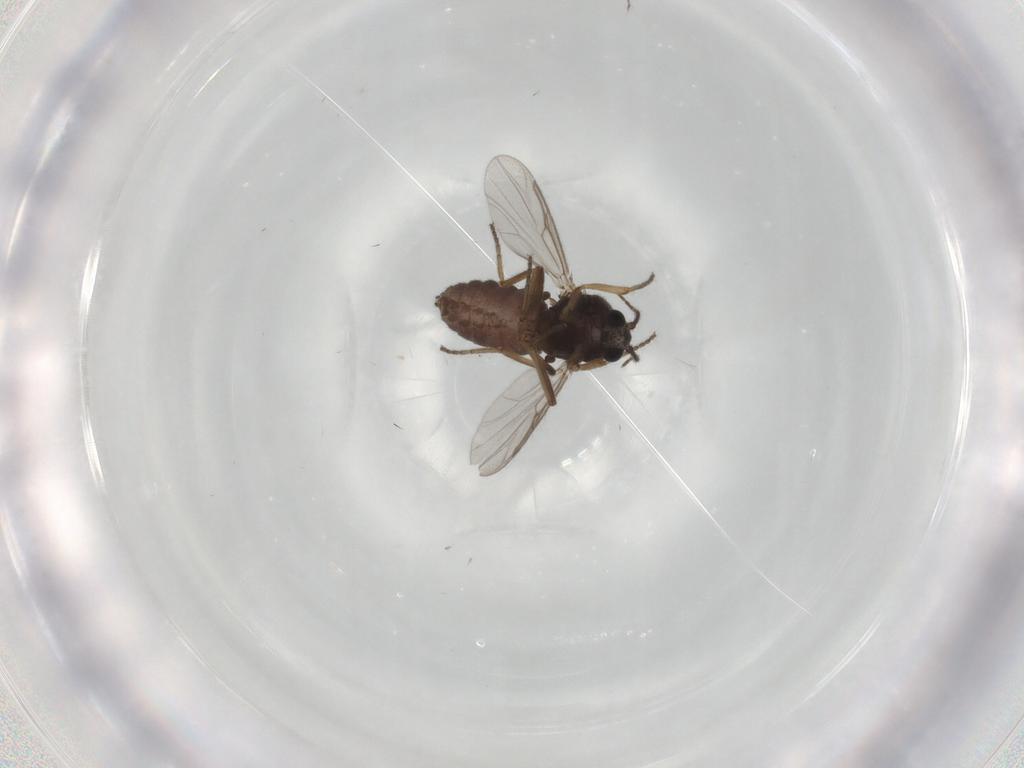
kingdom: Animalia
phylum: Arthropoda
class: Insecta
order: Diptera
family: Ceratopogonidae
